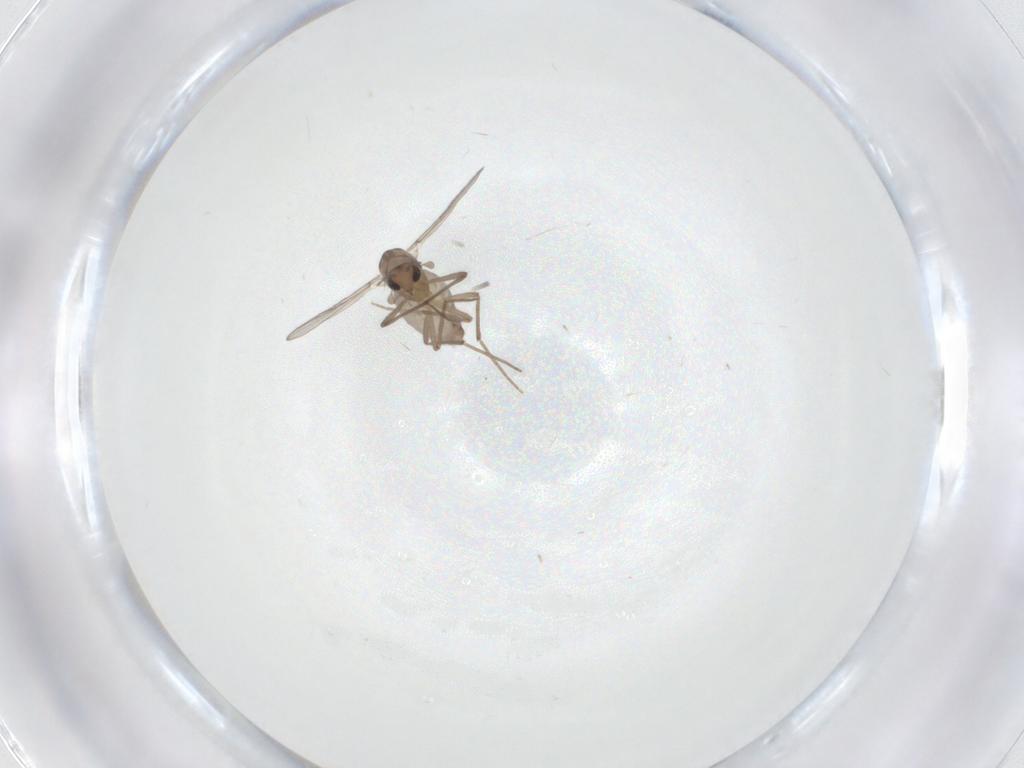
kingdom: Animalia
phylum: Arthropoda
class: Insecta
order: Diptera
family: Chironomidae
